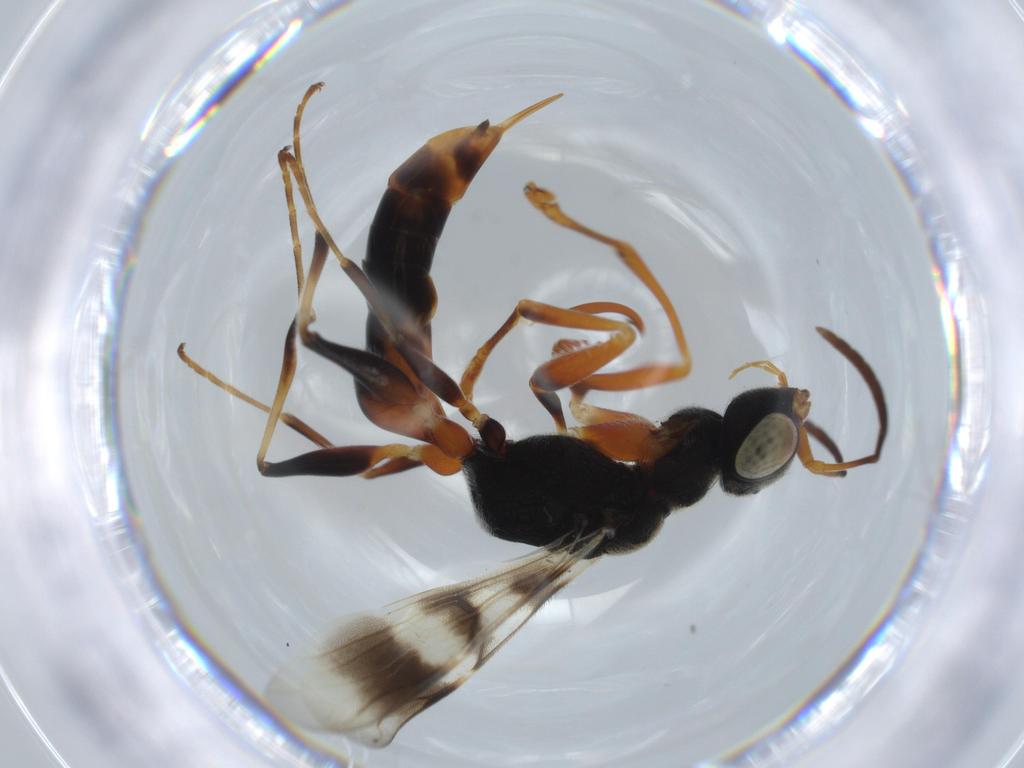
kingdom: Animalia
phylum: Arthropoda
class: Insecta
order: Hymenoptera
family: Dryinidae
